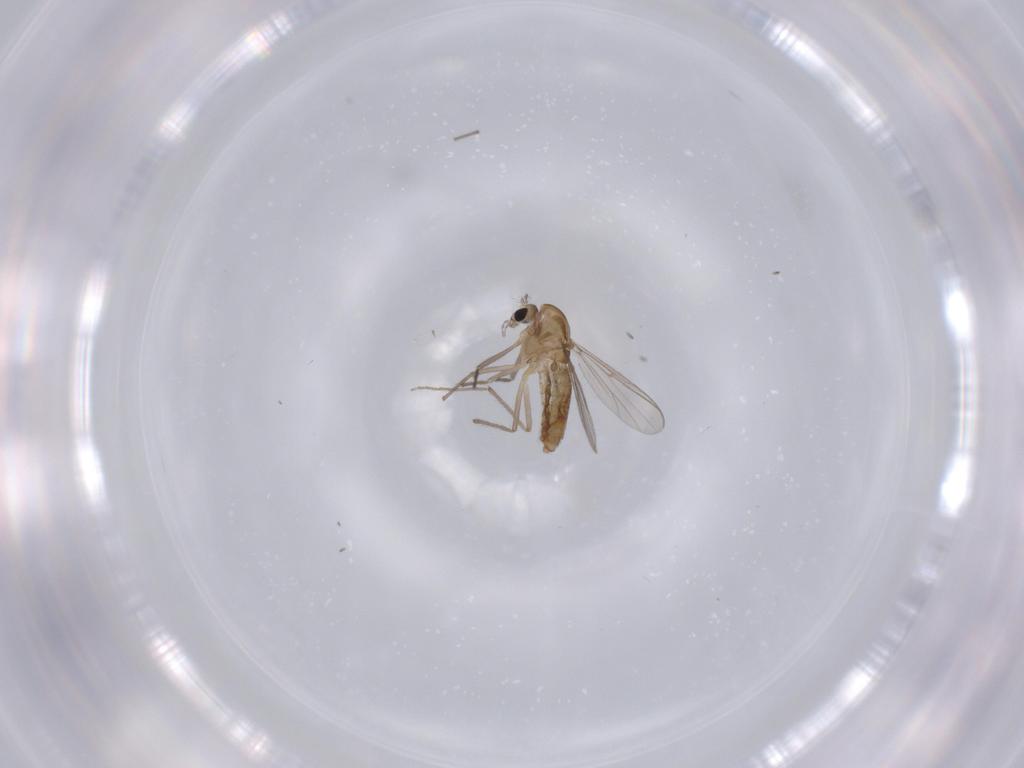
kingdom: Animalia
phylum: Arthropoda
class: Insecta
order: Diptera
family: Chironomidae
